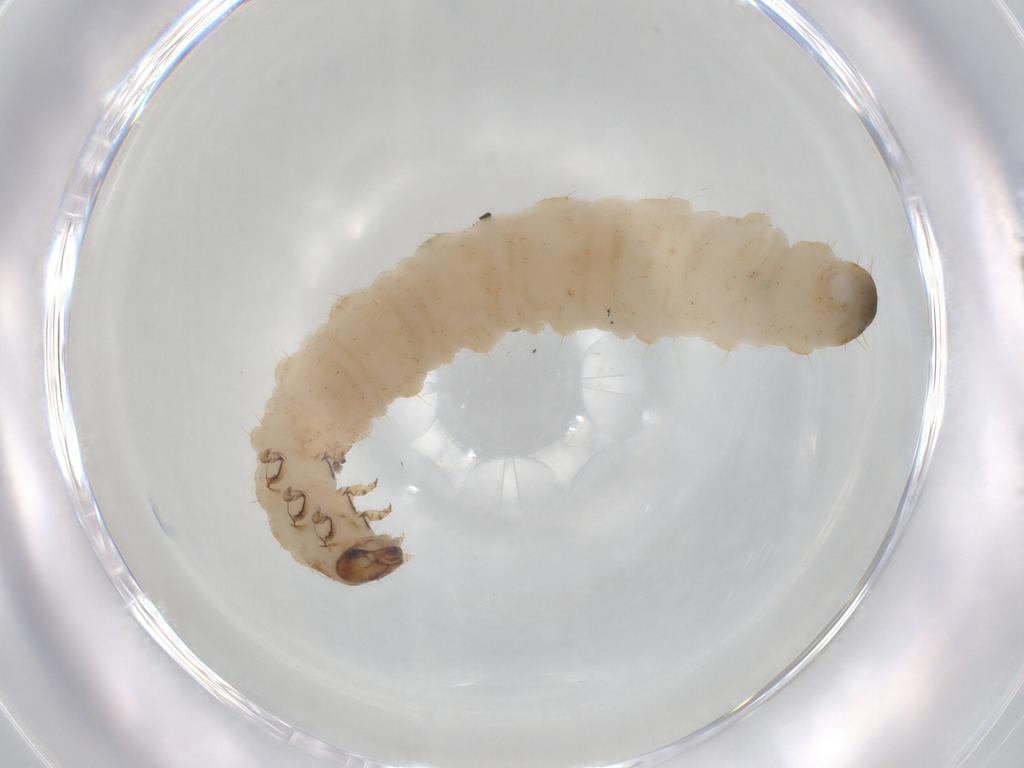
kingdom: Animalia
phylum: Arthropoda
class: Insecta
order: Coleoptera
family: Chrysomelidae
